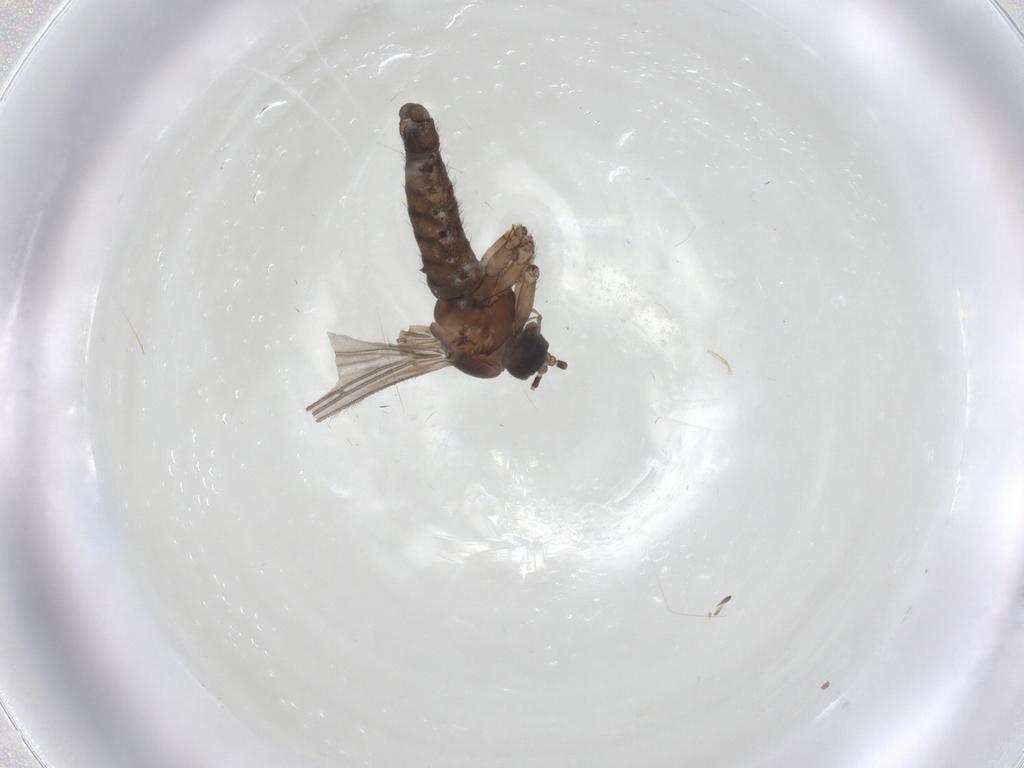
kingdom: Animalia
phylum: Arthropoda
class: Insecta
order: Diptera
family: Sciaridae
